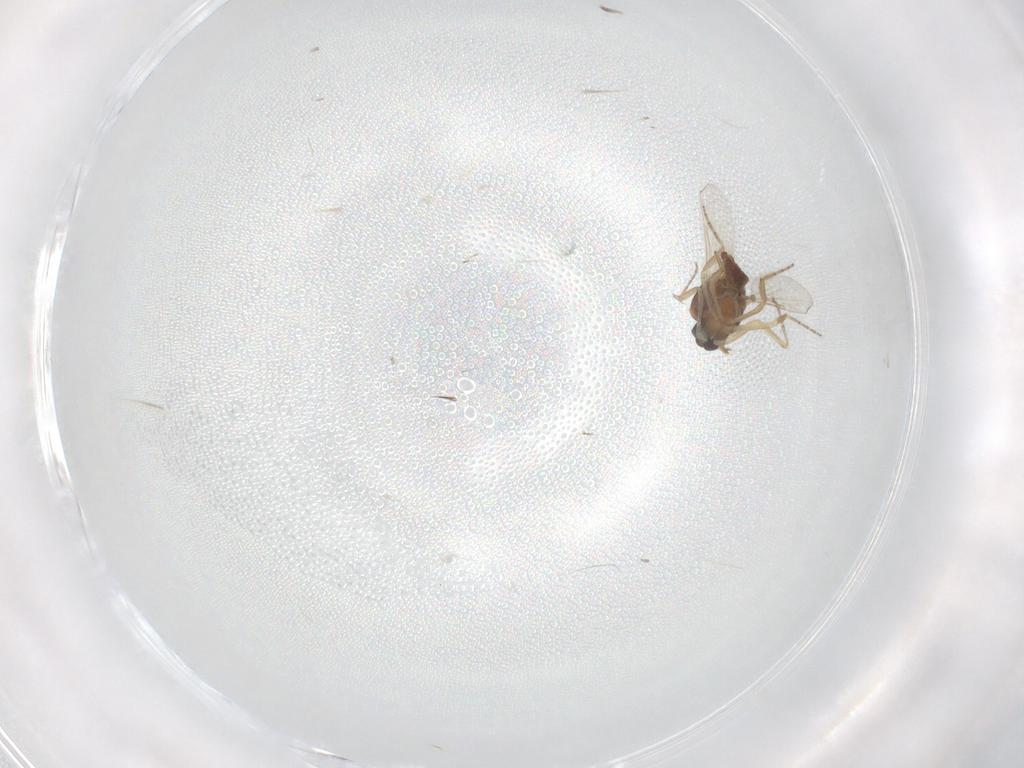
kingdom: Animalia
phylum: Arthropoda
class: Insecta
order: Diptera
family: Ceratopogonidae
